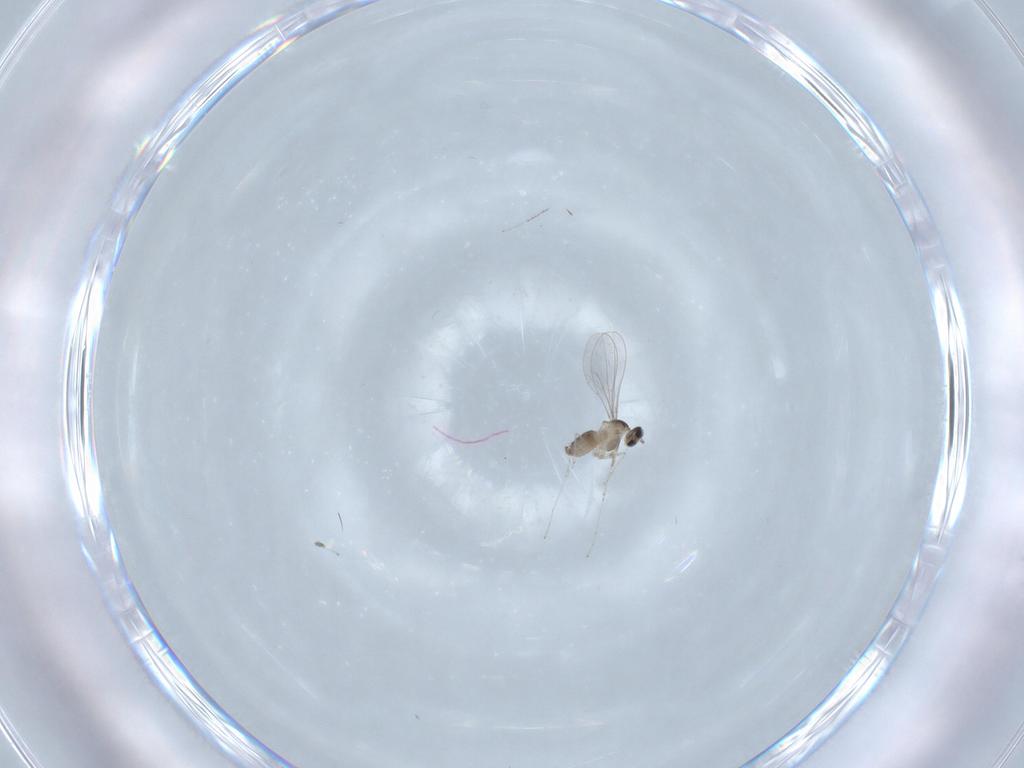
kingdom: Animalia
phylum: Arthropoda
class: Insecta
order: Diptera
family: Cecidomyiidae
